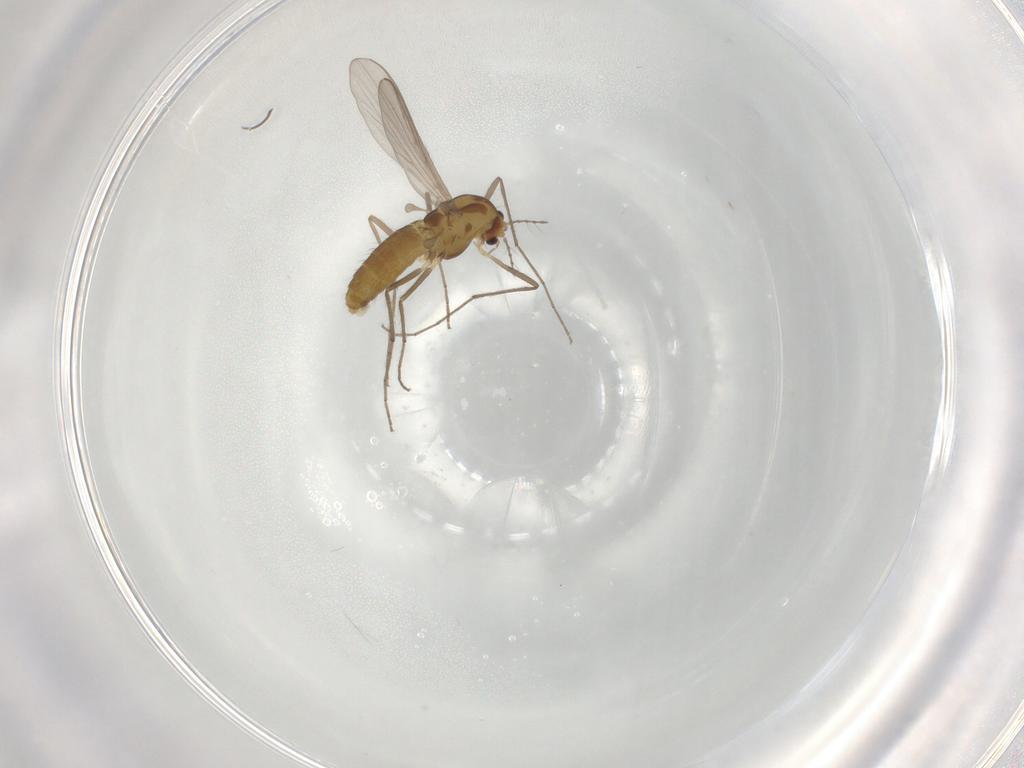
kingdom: Animalia
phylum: Arthropoda
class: Insecta
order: Diptera
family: Chironomidae
